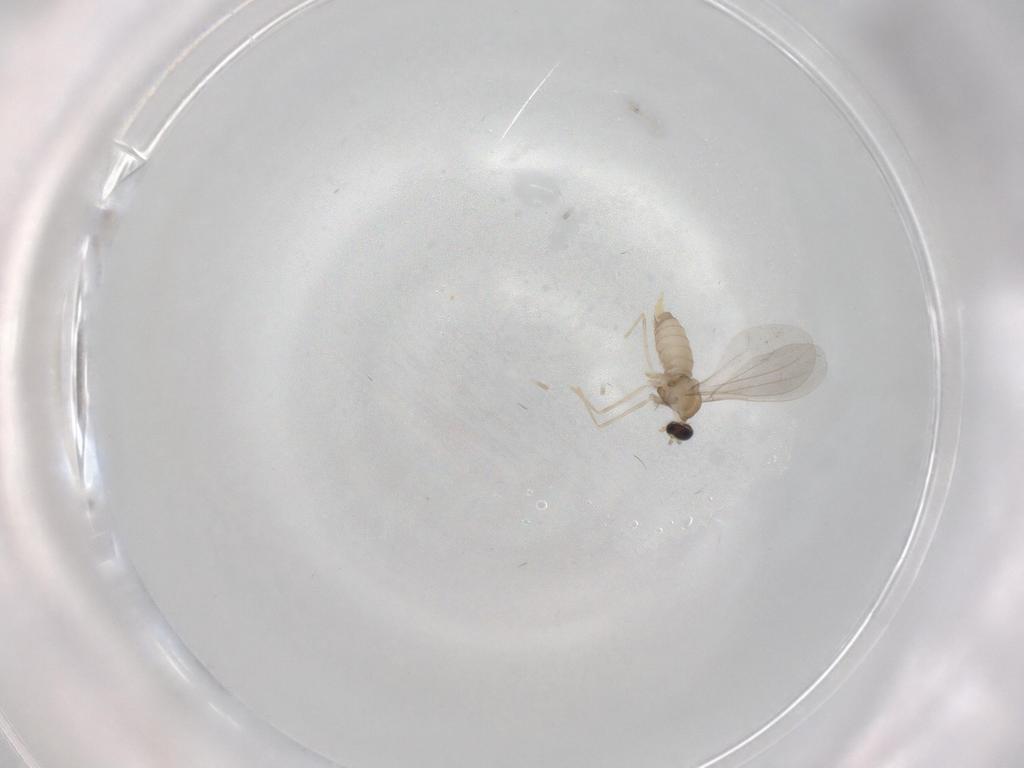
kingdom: Animalia
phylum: Arthropoda
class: Insecta
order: Diptera
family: Cecidomyiidae
